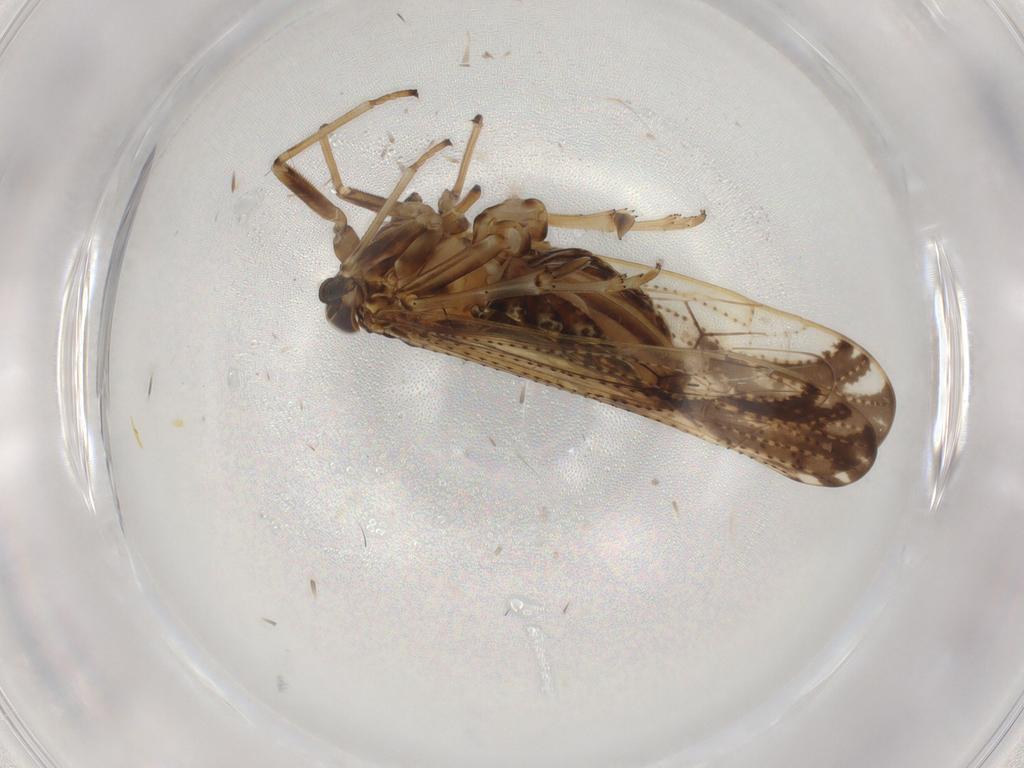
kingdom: Animalia
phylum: Arthropoda
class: Insecta
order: Hemiptera
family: Delphacidae
